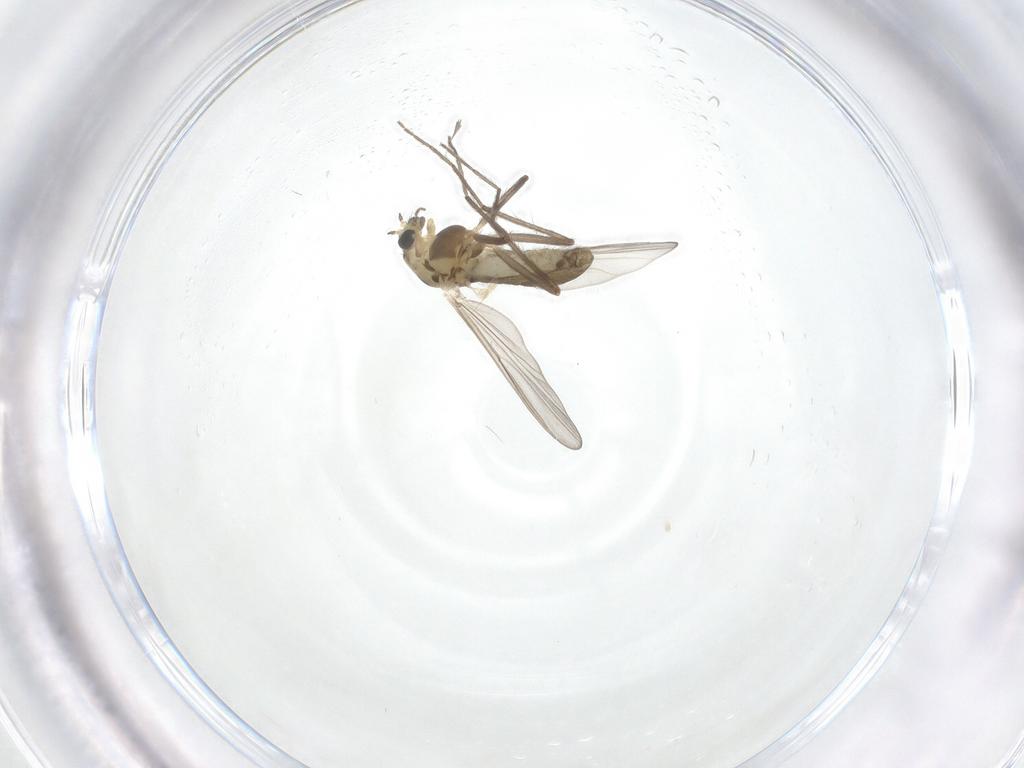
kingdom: Animalia
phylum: Arthropoda
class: Insecta
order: Diptera
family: Chironomidae
